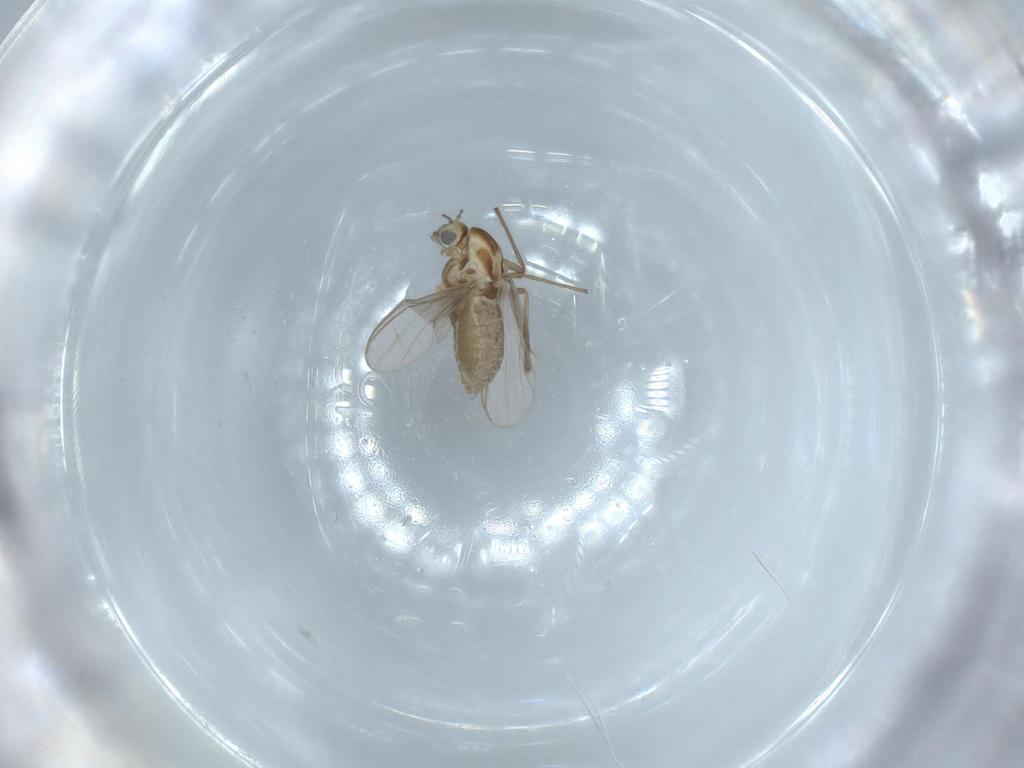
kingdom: Animalia
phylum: Arthropoda
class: Insecta
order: Diptera
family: Chironomidae
